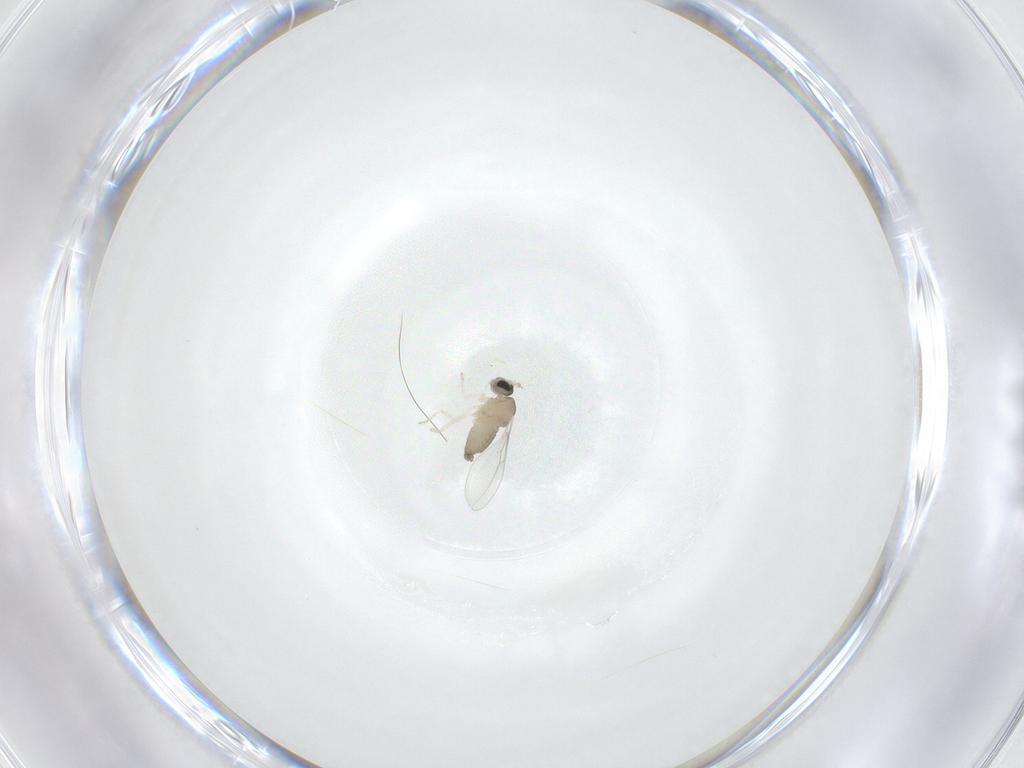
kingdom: Animalia
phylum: Arthropoda
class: Insecta
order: Diptera
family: Cecidomyiidae
